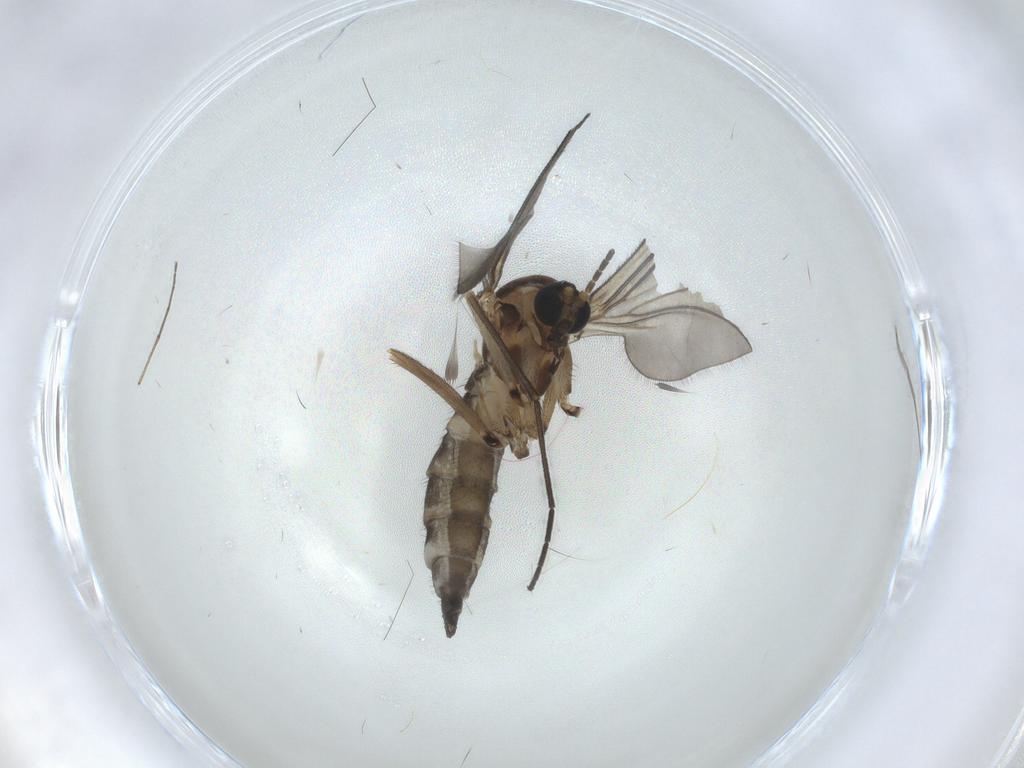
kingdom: Animalia
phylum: Arthropoda
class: Insecta
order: Diptera
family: Sciaridae
